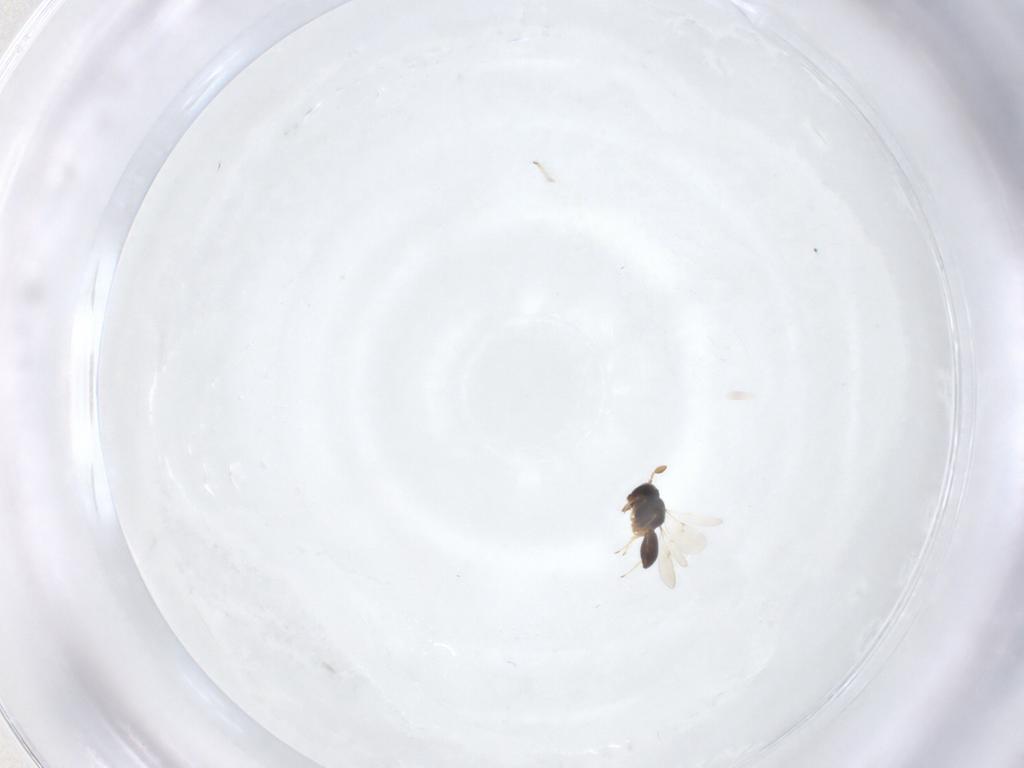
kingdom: Animalia
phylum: Arthropoda
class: Insecta
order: Hymenoptera
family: Scelionidae
